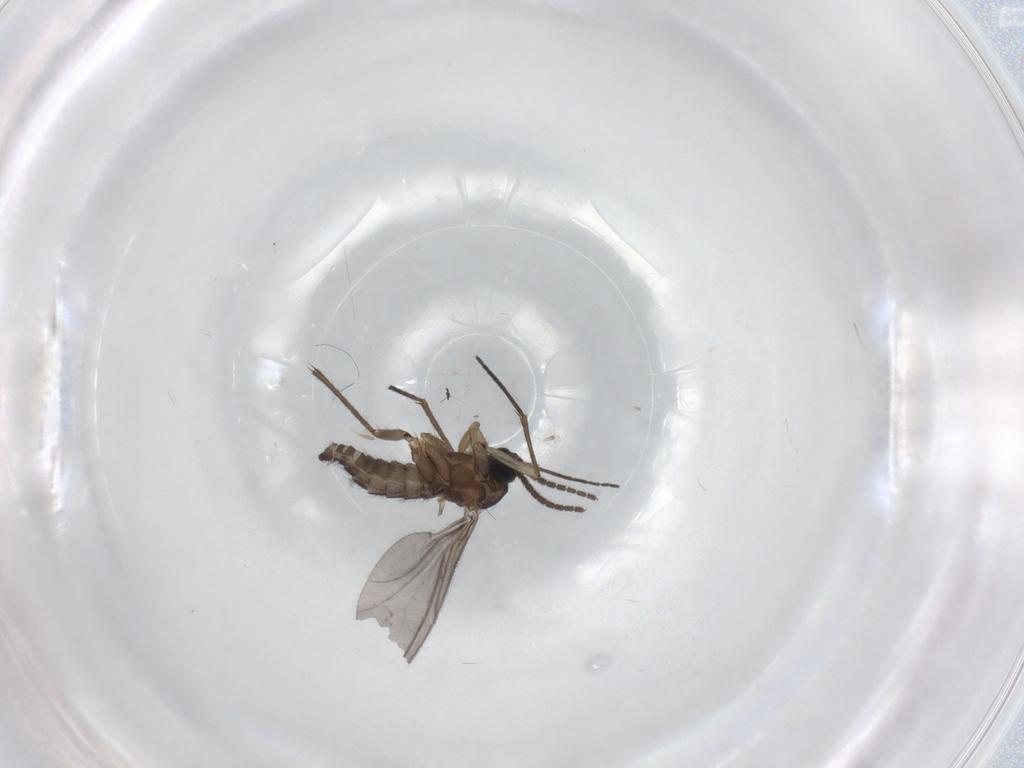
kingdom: Animalia
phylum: Arthropoda
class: Insecta
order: Diptera
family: Sciaridae
